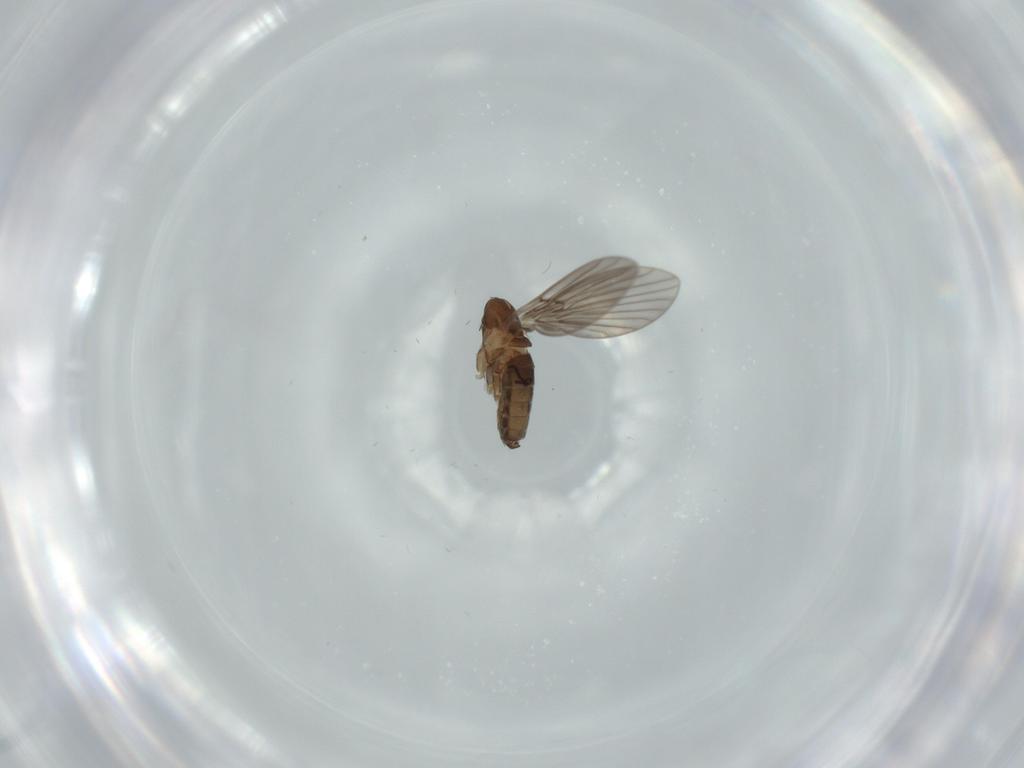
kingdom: Animalia
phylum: Arthropoda
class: Insecta
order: Diptera
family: Psychodidae
